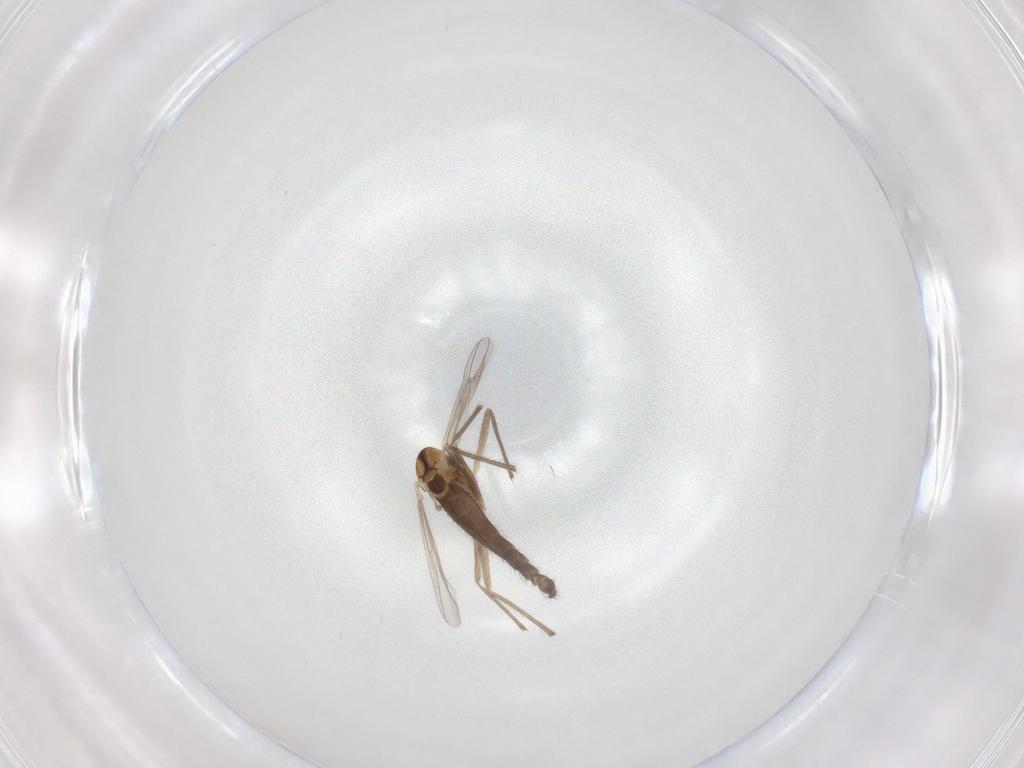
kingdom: Animalia
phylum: Arthropoda
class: Insecta
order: Diptera
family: Chironomidae
